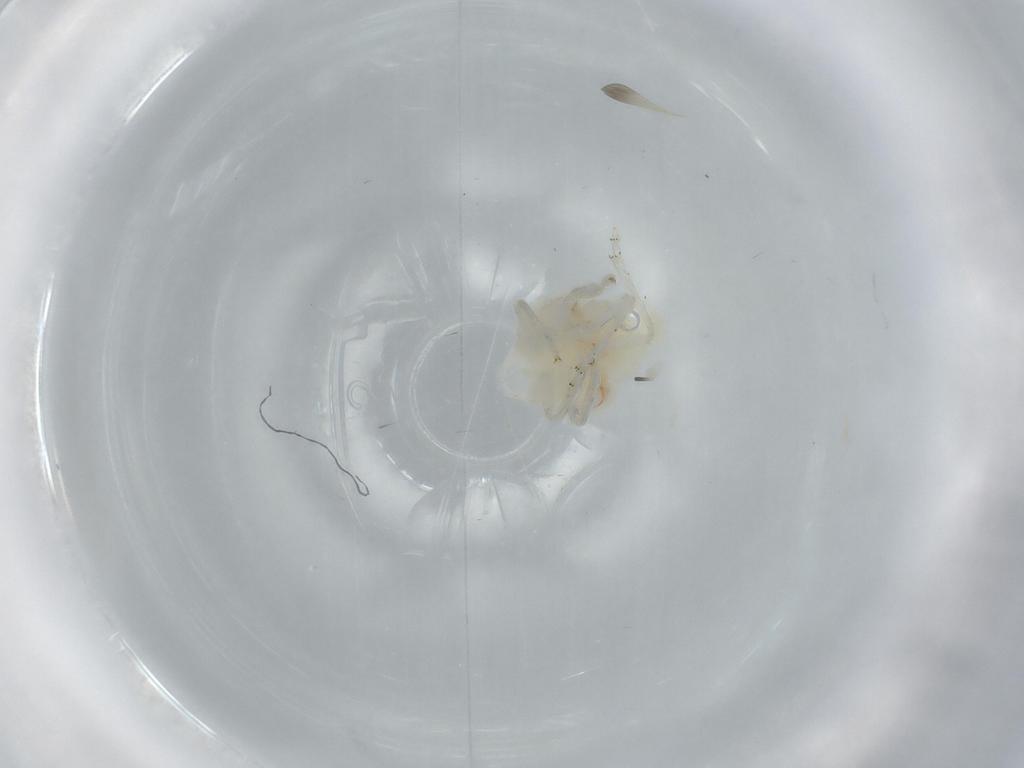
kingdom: Animalia
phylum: Arthropoda
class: Insecta
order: Hemiptera
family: Nogodinidae
